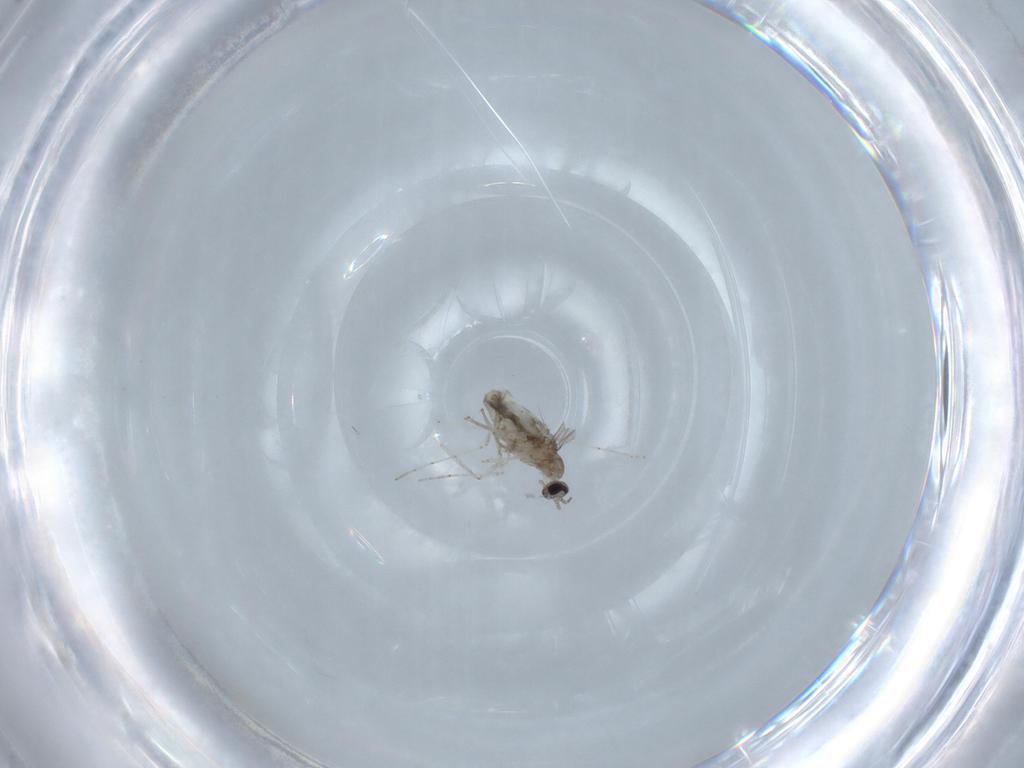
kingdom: Animalia
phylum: Arthropoda
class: Insecta
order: Diptera
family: Cecidomyiidae
